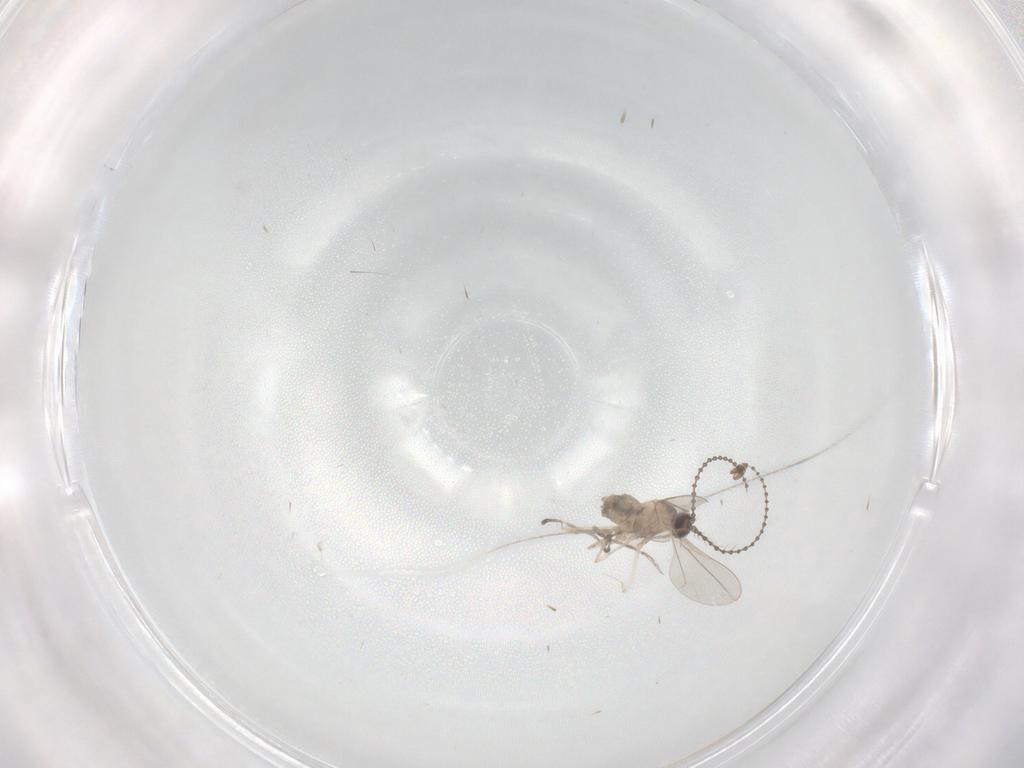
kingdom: Animalia
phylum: Arthropoda
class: Insecta
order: Diptera
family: Cecidomyiidae
